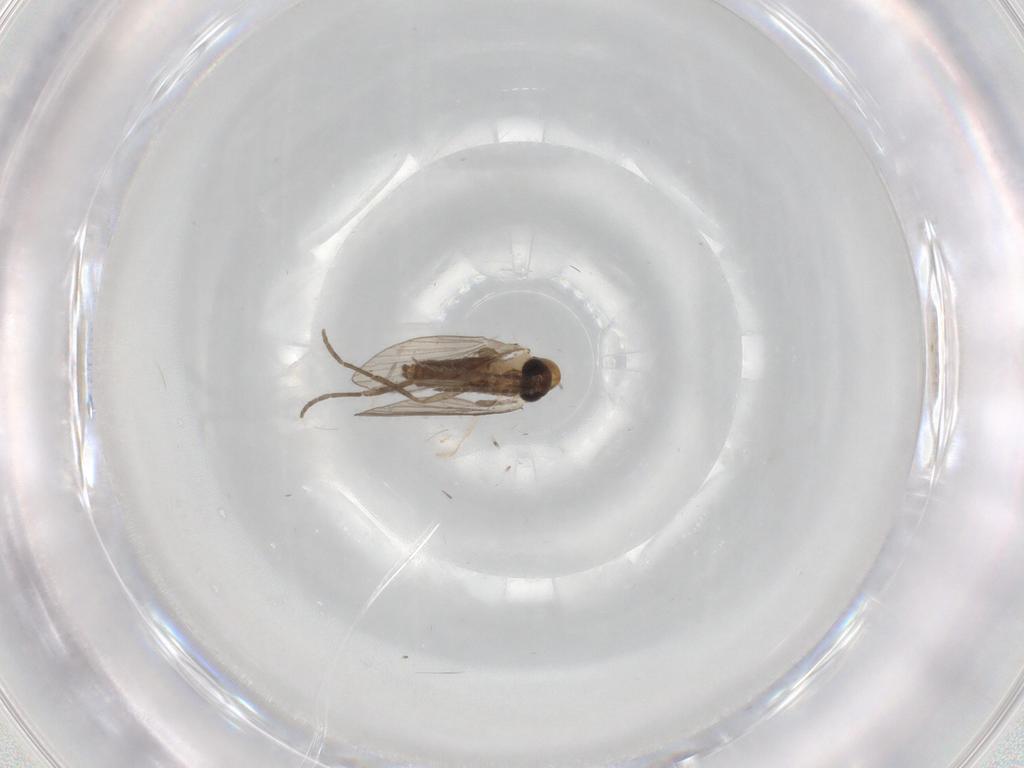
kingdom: Animalia
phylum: Arthropoda
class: Insecta
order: Diptera
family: Psychodidae
